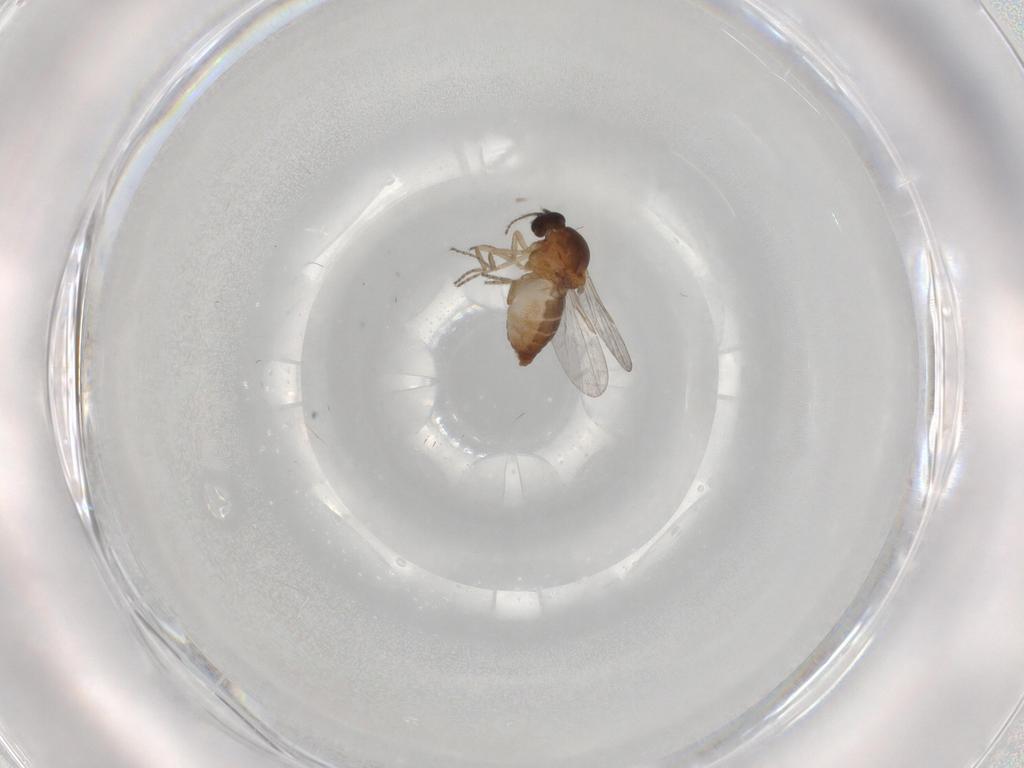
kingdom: Animalia
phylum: Arthropoda
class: Insecta
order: Diptera
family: Ceratopogonidae
